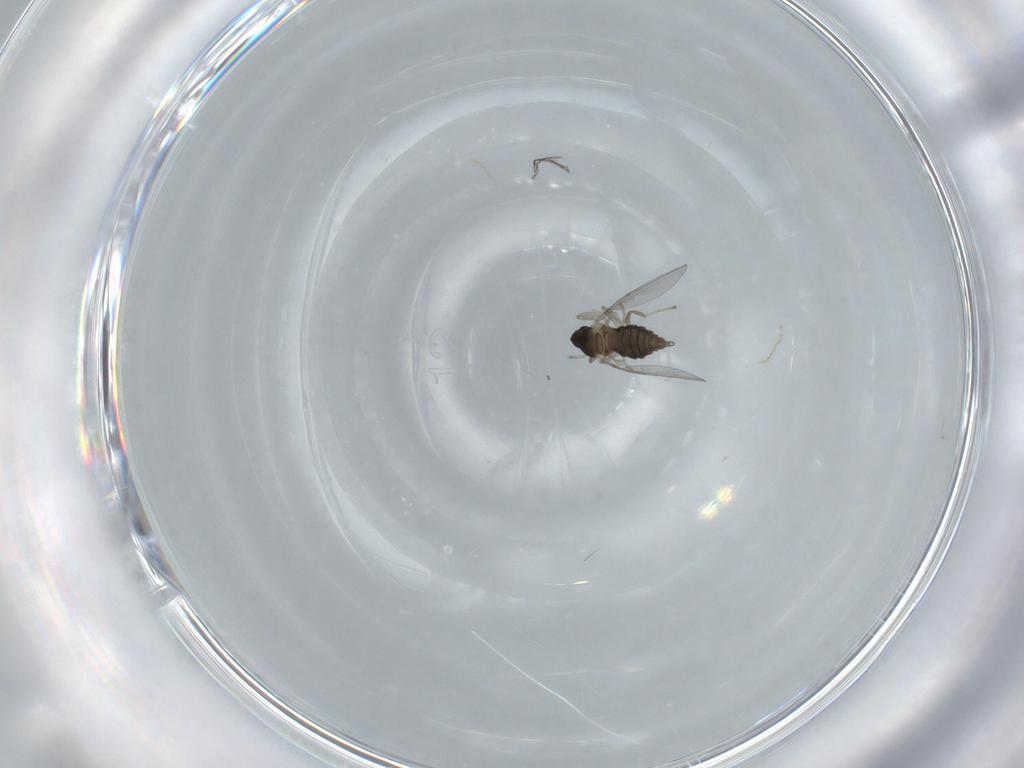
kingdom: Animalia
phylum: Arthropoda
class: Insecta
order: Diptera
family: Cecidomyiidae
